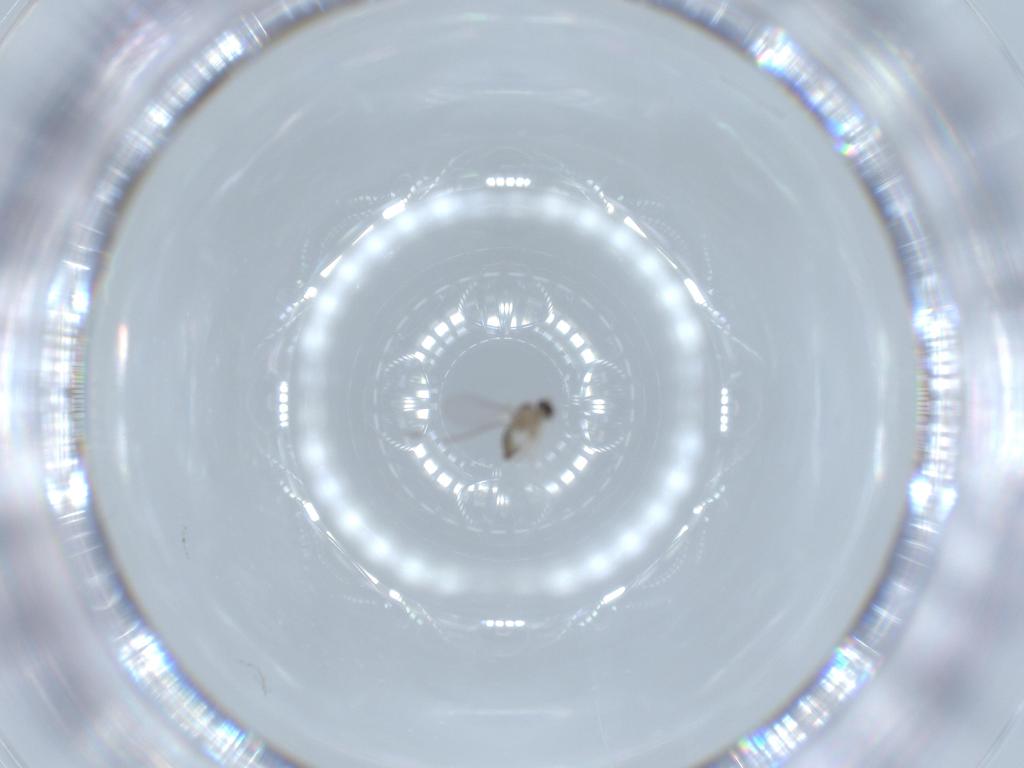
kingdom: Animalia
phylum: Arthropoda
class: Insecta
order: Diptera
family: Cecidomyiidae
